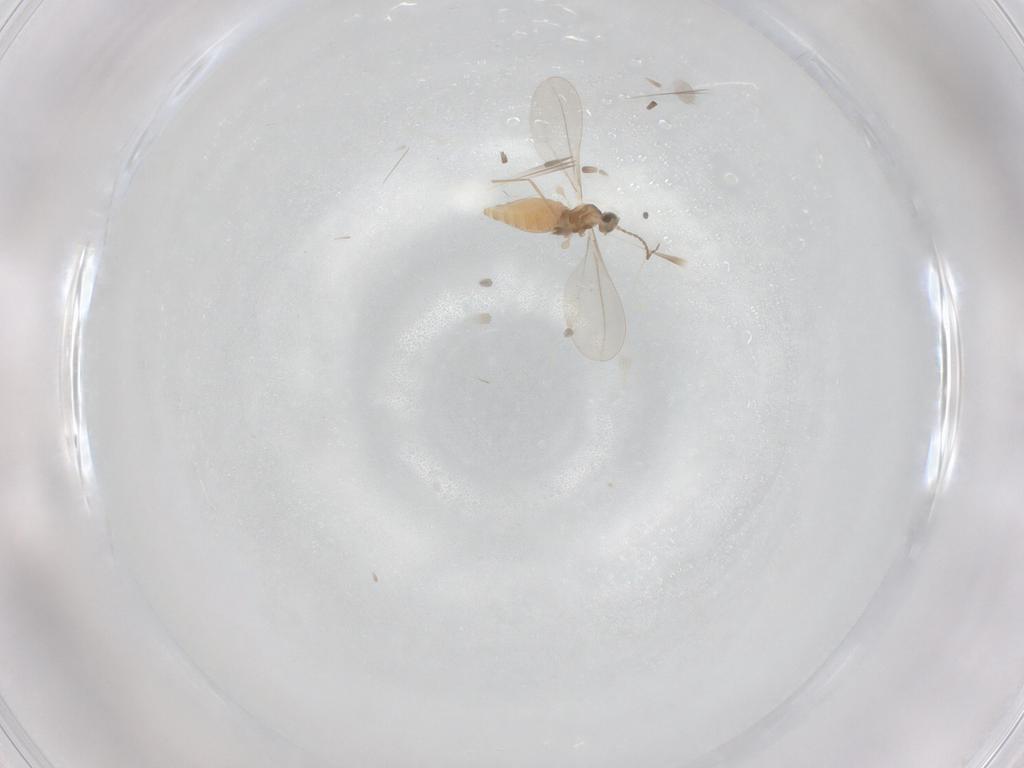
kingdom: Animalia
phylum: Arthropoda
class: Insecta
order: Diptera
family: Cecidomyiidae
